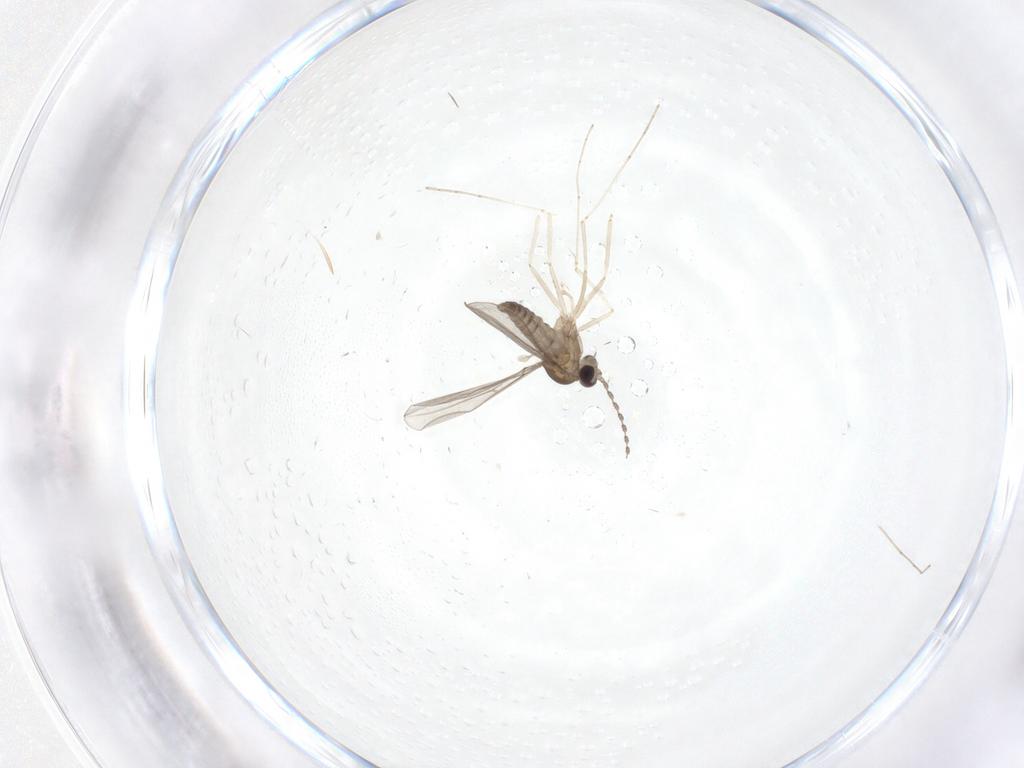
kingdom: Animalia
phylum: Arthropoda
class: Insecta
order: Diptera
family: Cecidomyiidae
